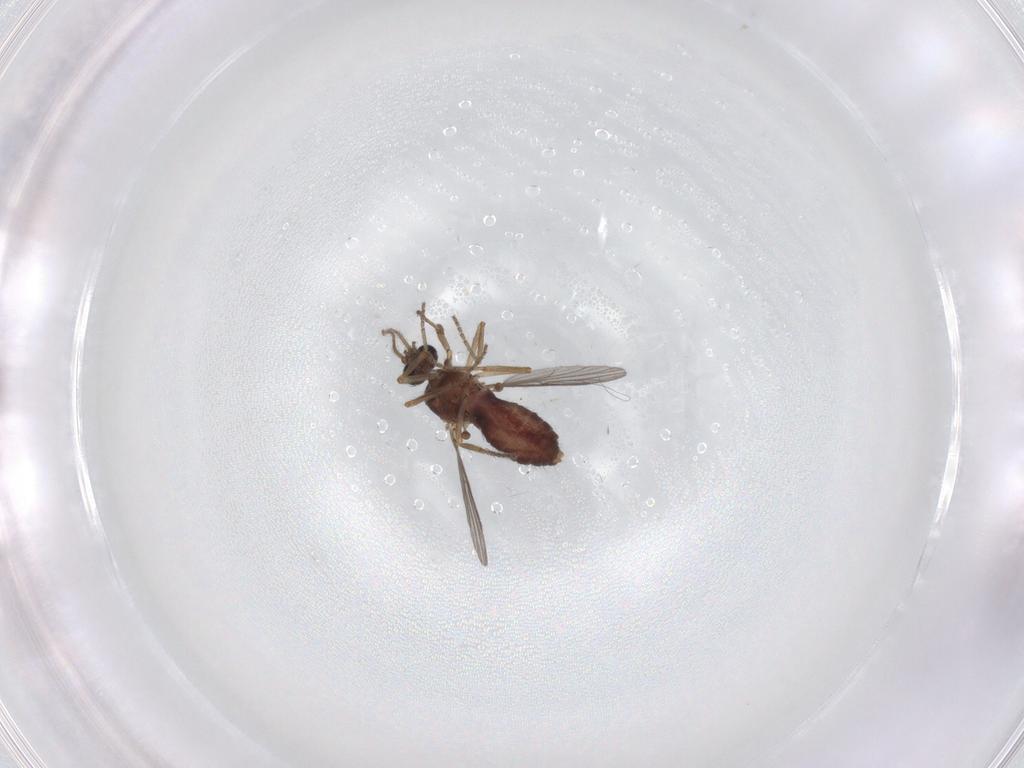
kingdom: Animalia
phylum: Arthropoda
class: Insecta
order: Diptera
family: Ceratopogonidae
